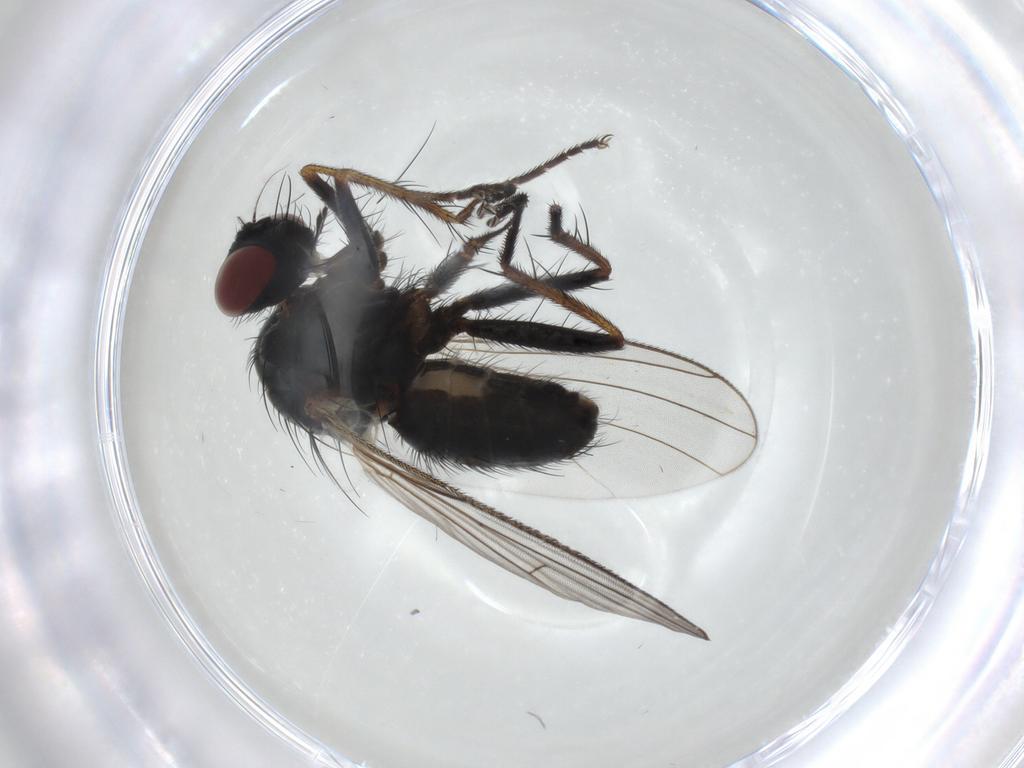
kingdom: Animalia
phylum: Arthropoda
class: Insecta
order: Diptera
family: Muscidae
